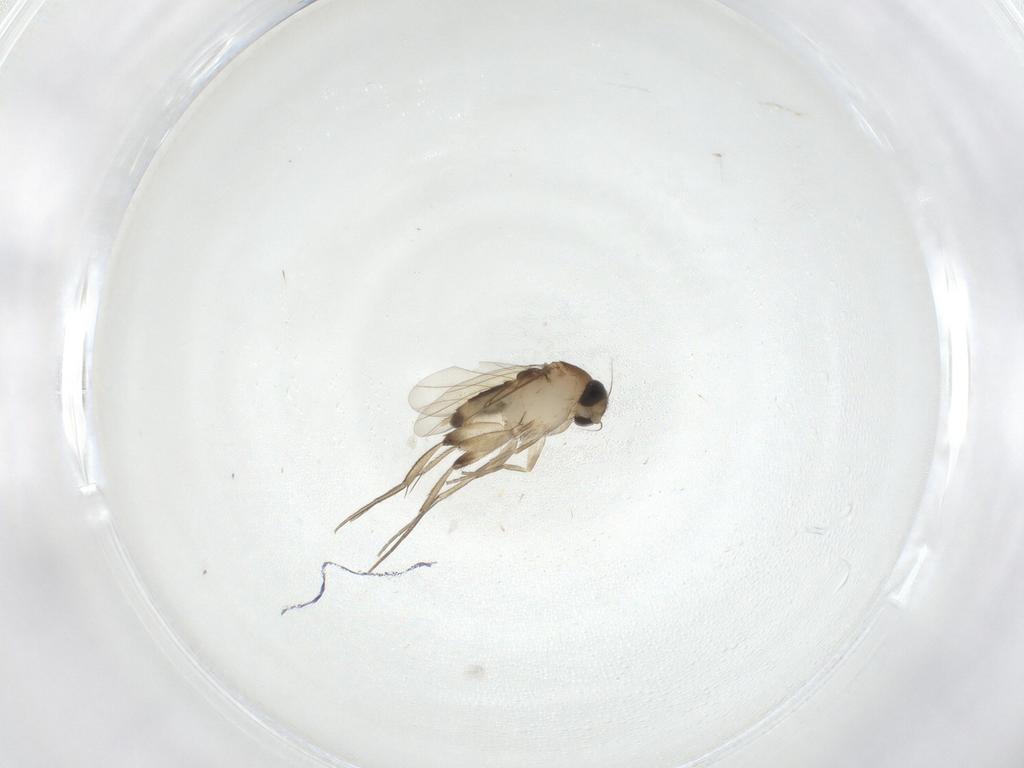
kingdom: Animalia
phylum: Arthropoda
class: Insecta
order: Diptera
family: Phoridae
